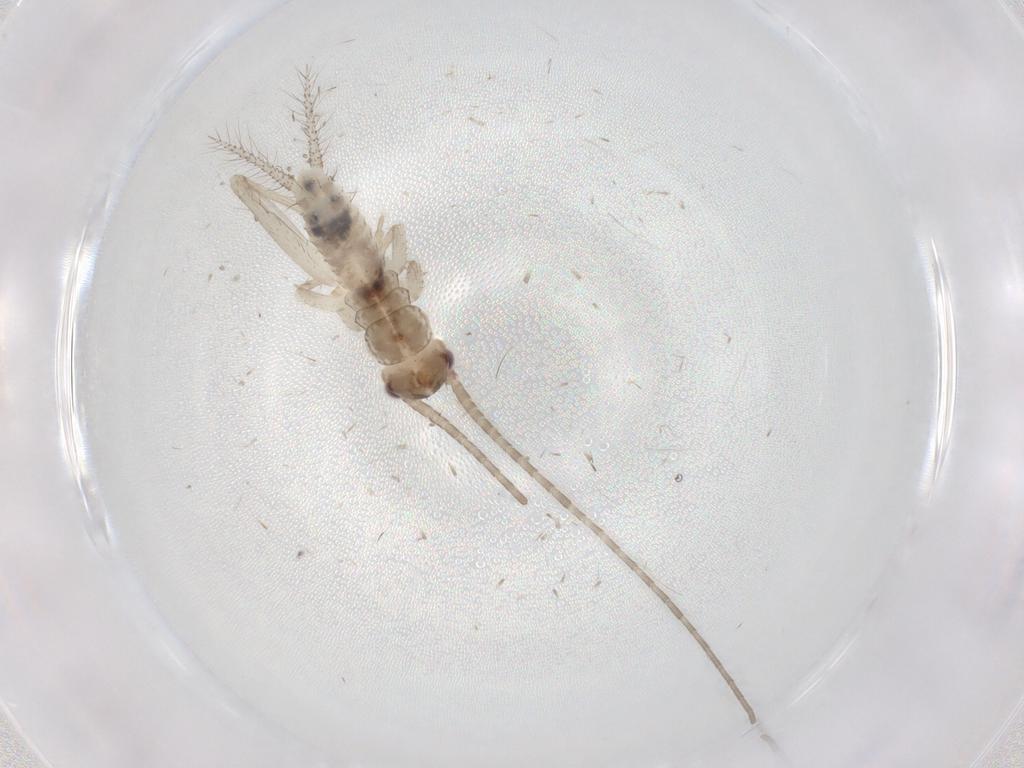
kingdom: Animalia
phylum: Arthropoda
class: Insecta
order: Orthoptera
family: Gryllidae
